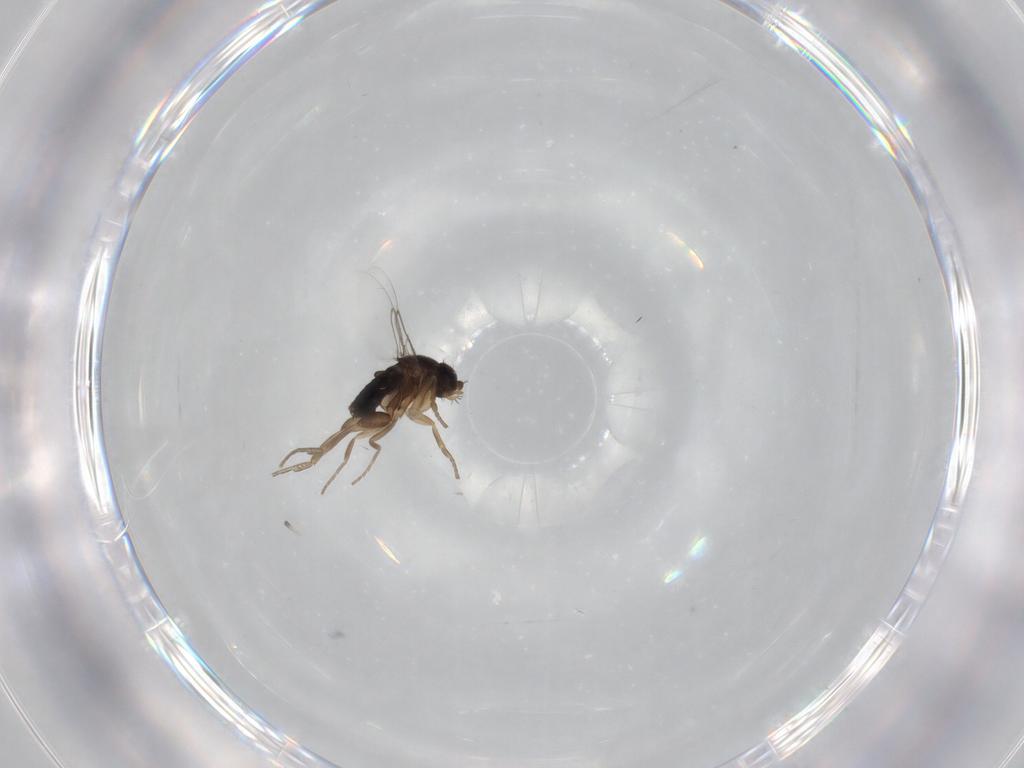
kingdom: Animalia
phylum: Arthropoda
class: Insecta
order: Diptera
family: Phoridae
